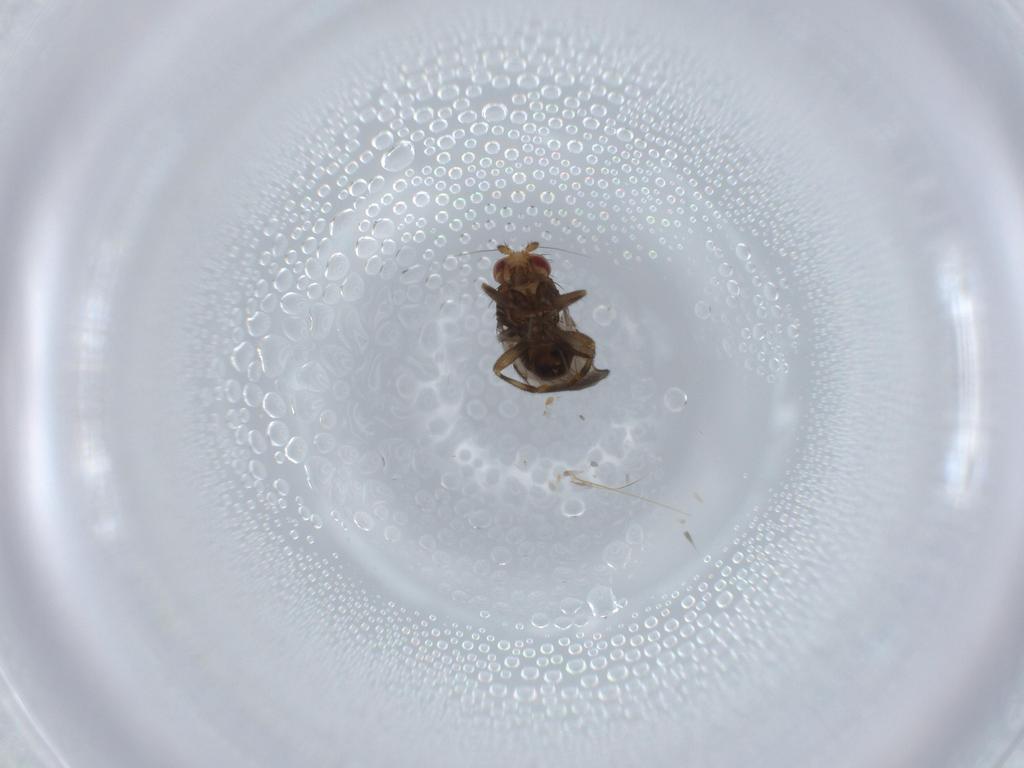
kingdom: Animalia
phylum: Arthropoda
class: Insecta
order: Diptera
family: Sphaeroceridae
